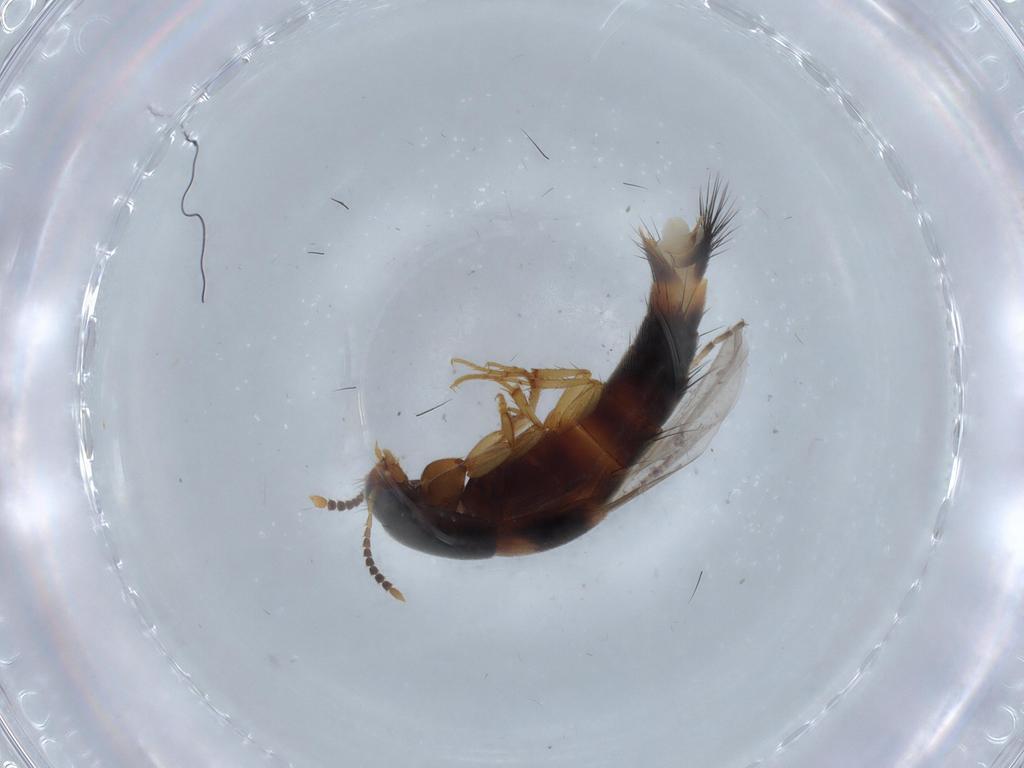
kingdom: Animalia
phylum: Arthropoda
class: Insecta
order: Coleoptera
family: Staphylinidae
